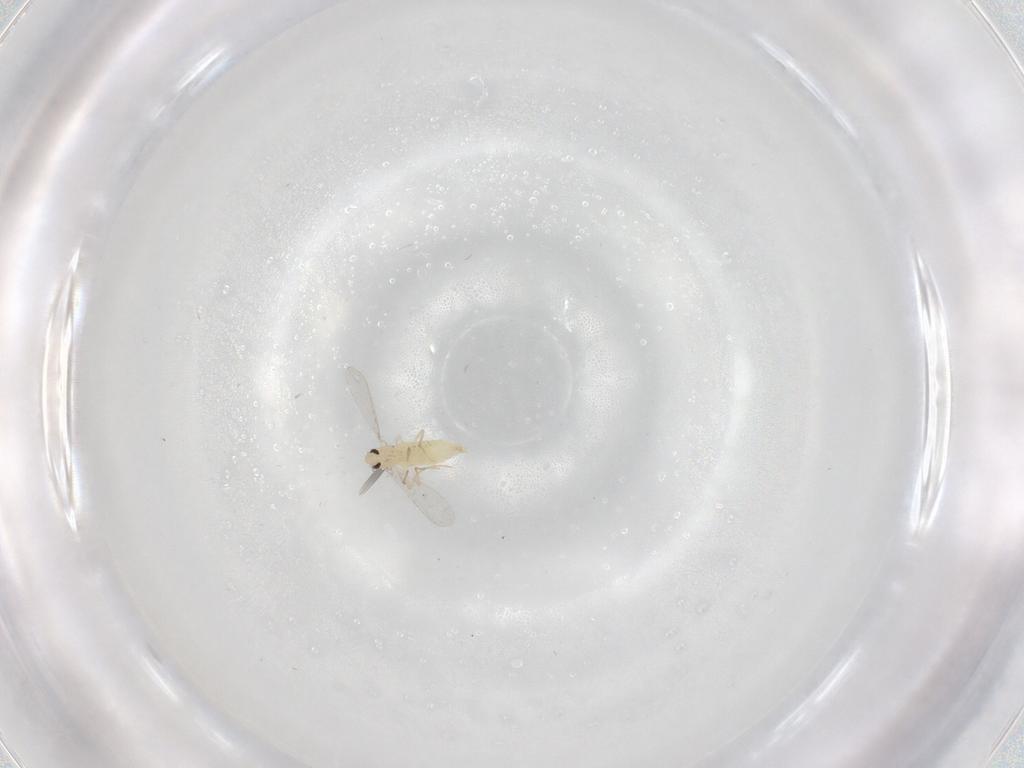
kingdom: Animalia
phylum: Arthropoda
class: Insecta
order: Diptera
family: Chironomidae
